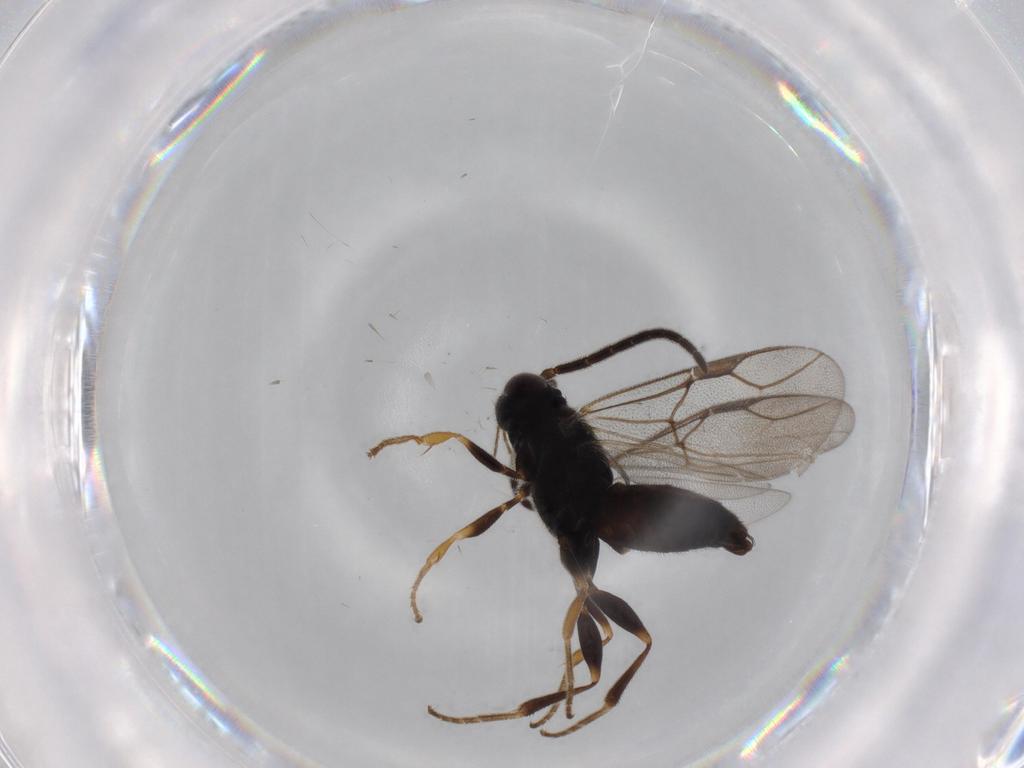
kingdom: Animalia
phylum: Arthropoda
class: Insecta
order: Hymenoptera
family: Dryinidae
